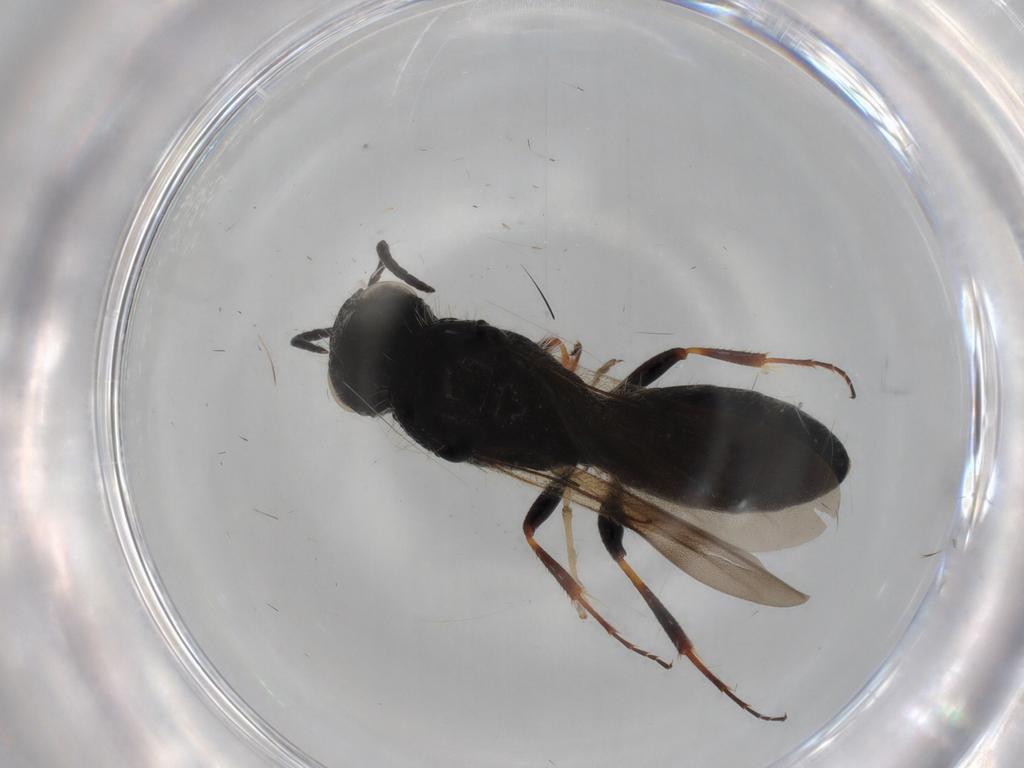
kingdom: Animalia
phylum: Arthropoda
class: Insecta
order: Hymenoptera
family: Scelionidae
